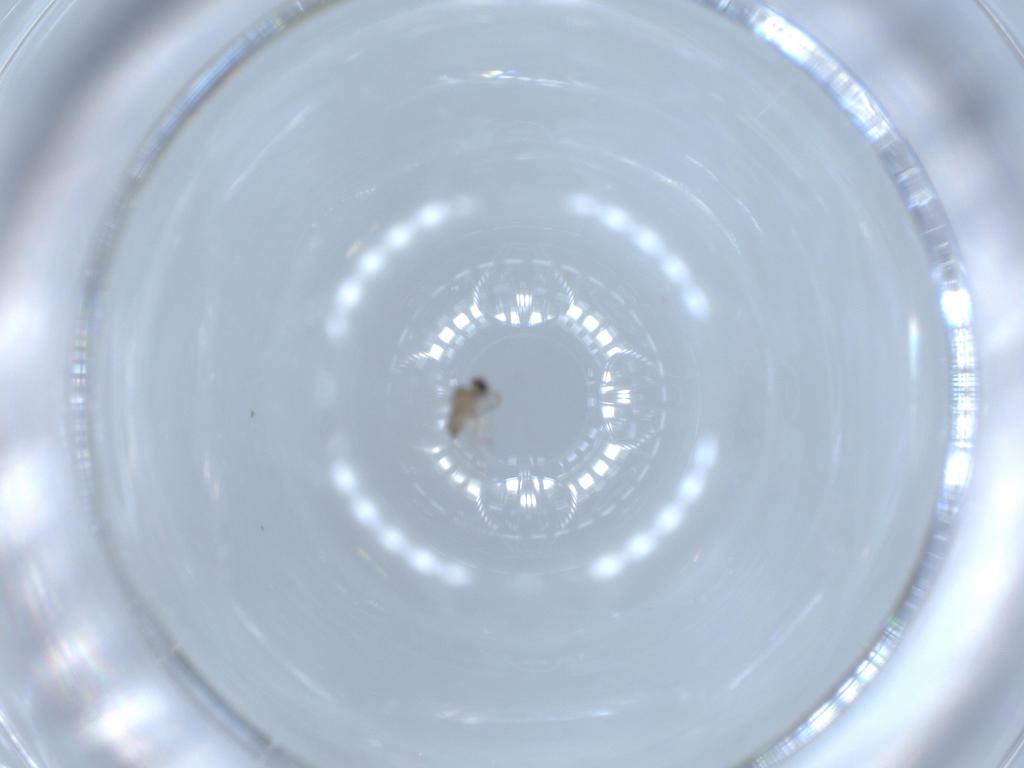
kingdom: Animalia
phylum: Arthropoda
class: Insecta
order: Diptera
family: Cecidomyiidae
